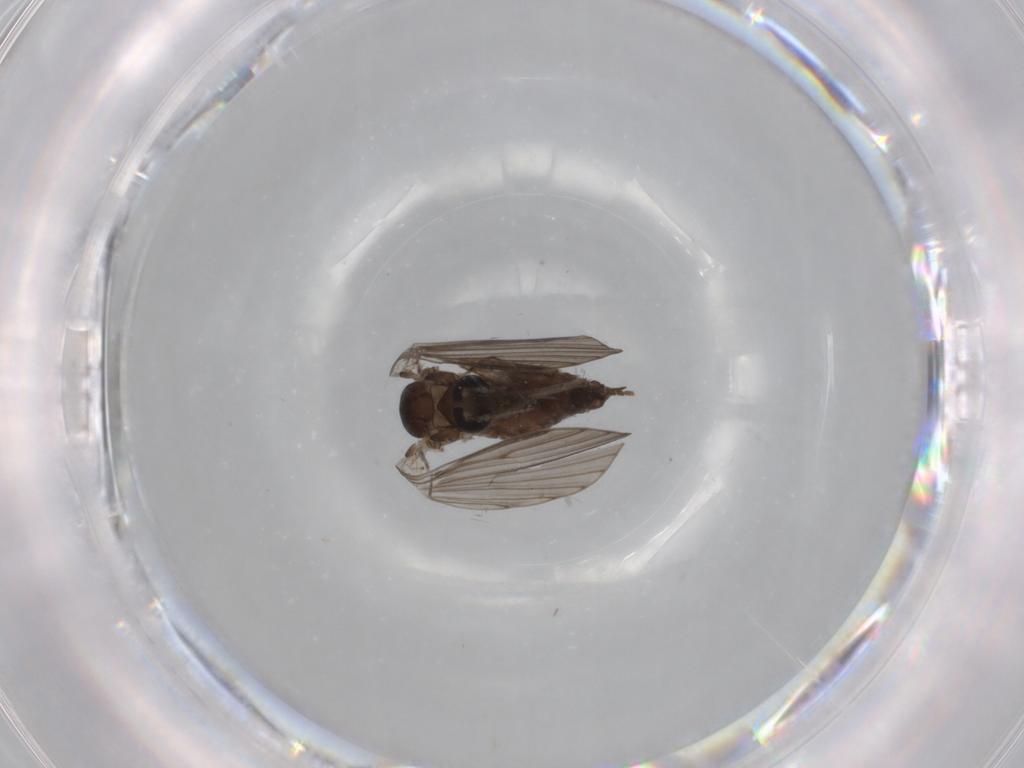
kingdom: Animalia
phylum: Arthropoda
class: Insecta
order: Diptera
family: Psychodidae
